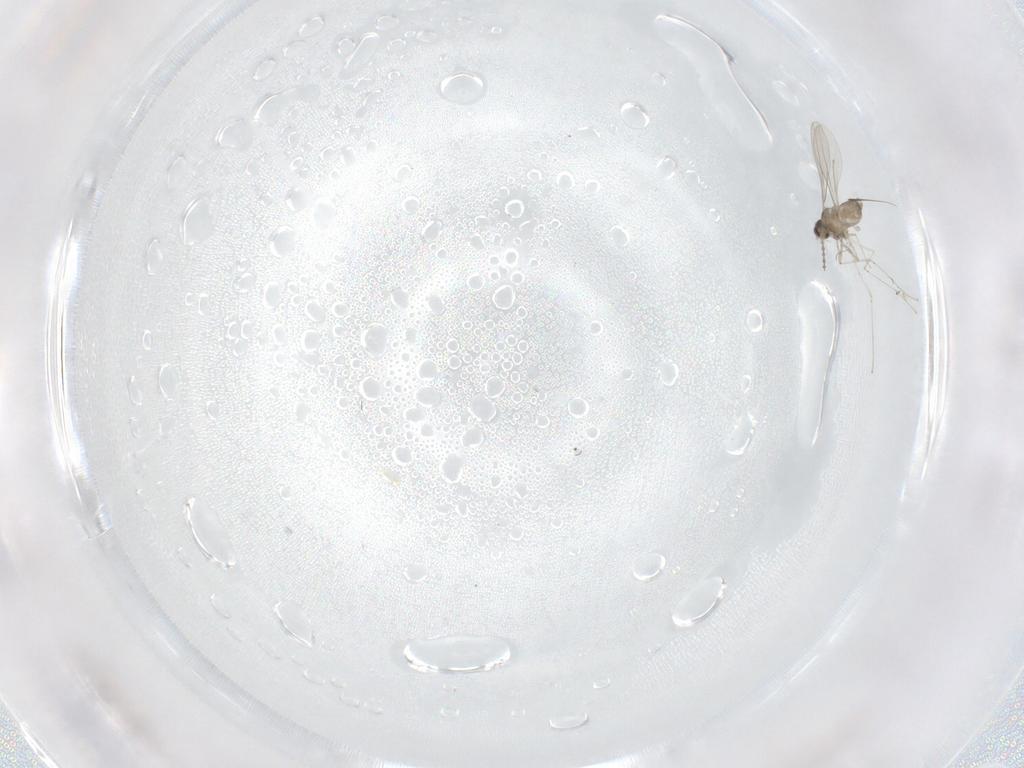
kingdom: Animalia
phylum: Arthropoda
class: Insecta
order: Diptera
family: Cecidomyiidae
